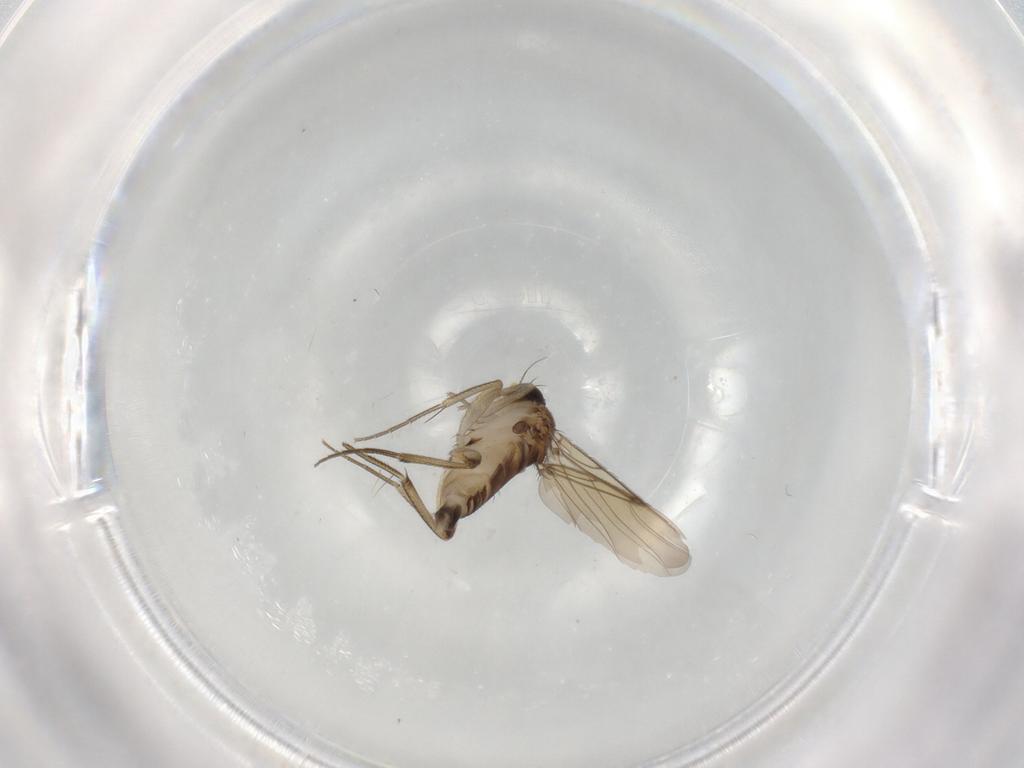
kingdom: Animalia
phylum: Arthropoda
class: Insecta
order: Diptera
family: Phoridae
